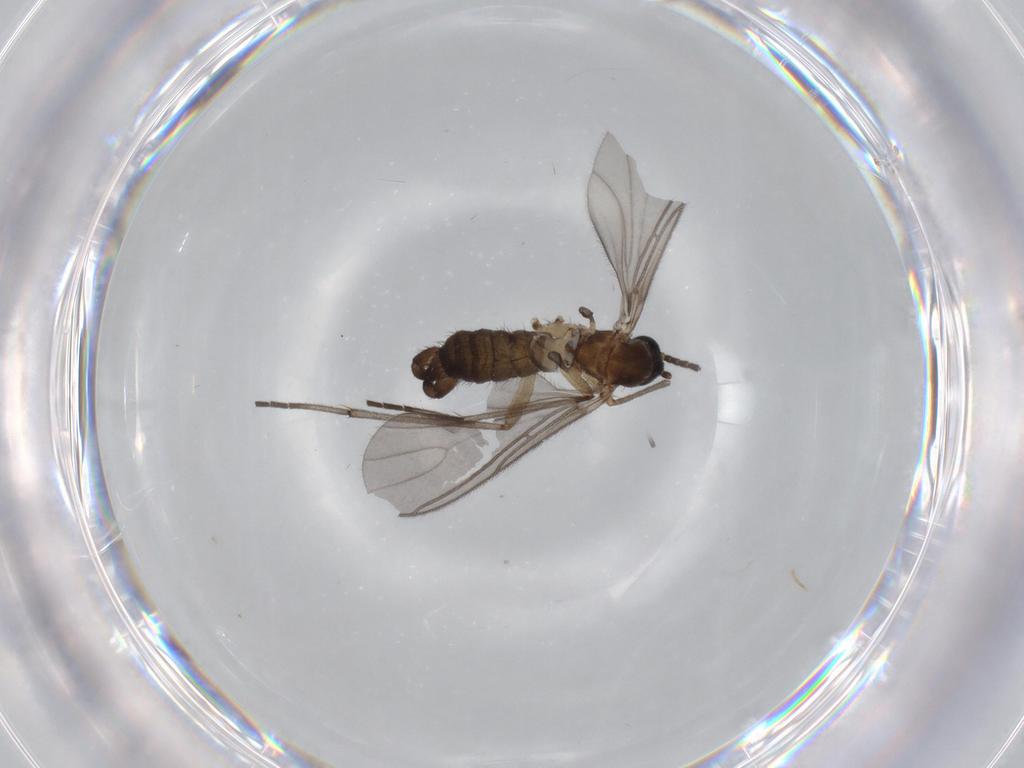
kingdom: Animalia
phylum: Arthropoda
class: Insecta
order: Diptera
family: Sciaridae
